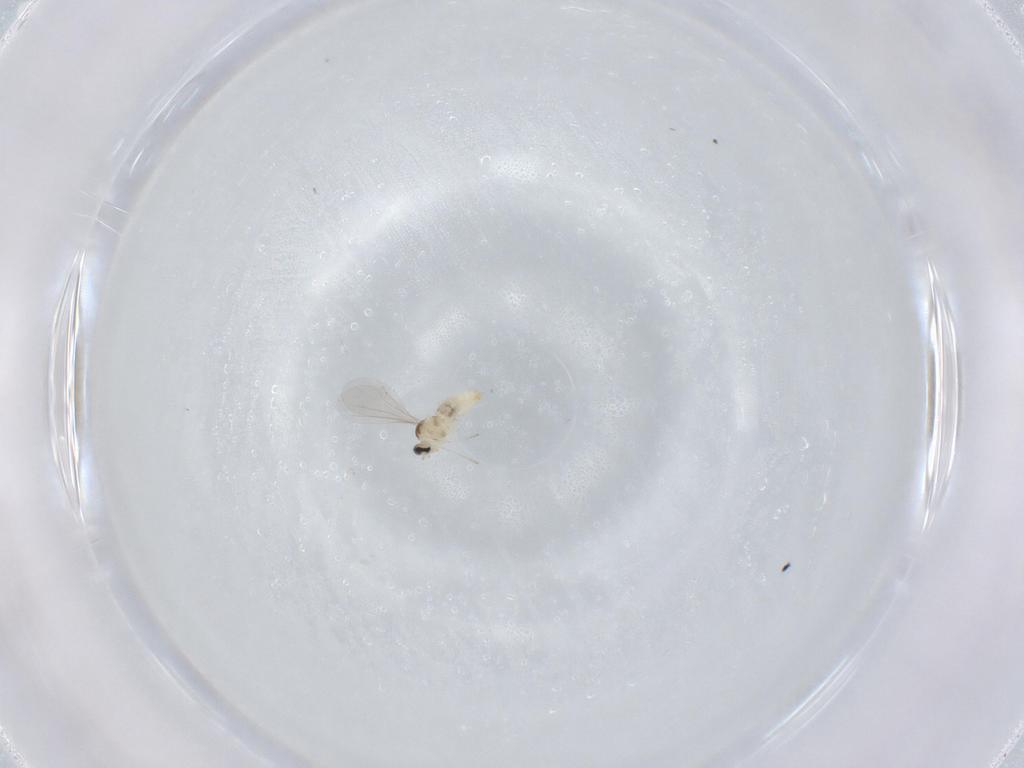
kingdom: Animalia
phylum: Arthropoda
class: Insecta
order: Diptera
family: Cecidomyiidae
